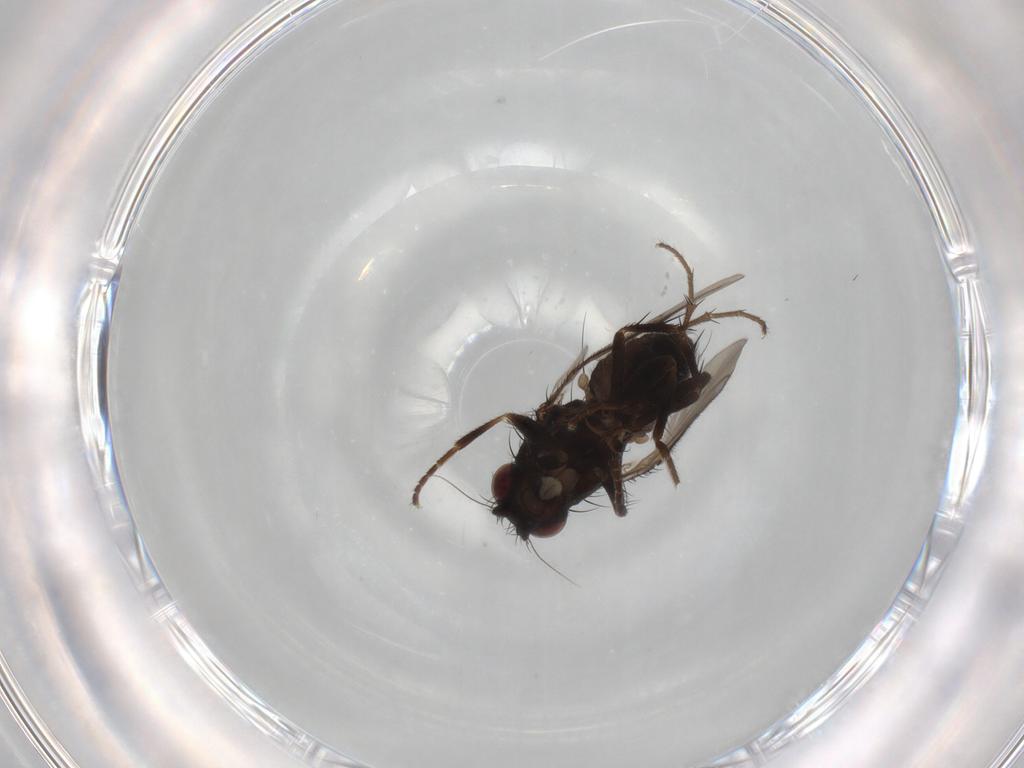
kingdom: Animalia
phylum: Arthropoda
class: Insecta
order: Diptera
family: Sphaeroceridae
